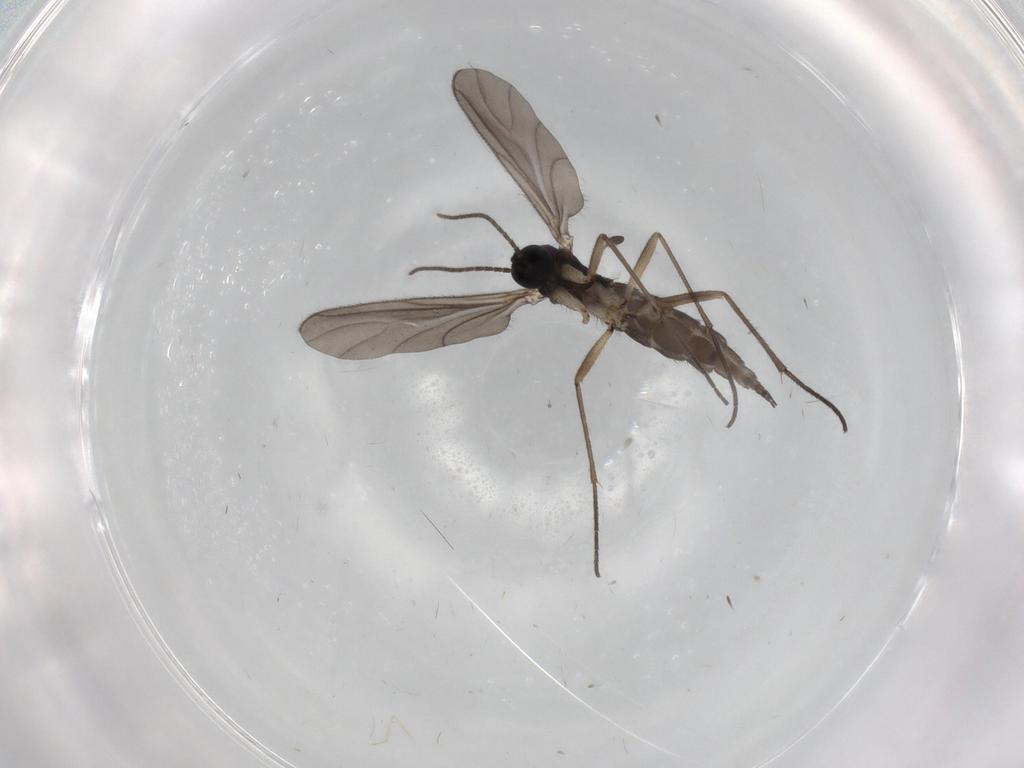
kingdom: Animalia
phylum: Arthropoda
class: Insecta
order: Diptera
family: Sciaridae
